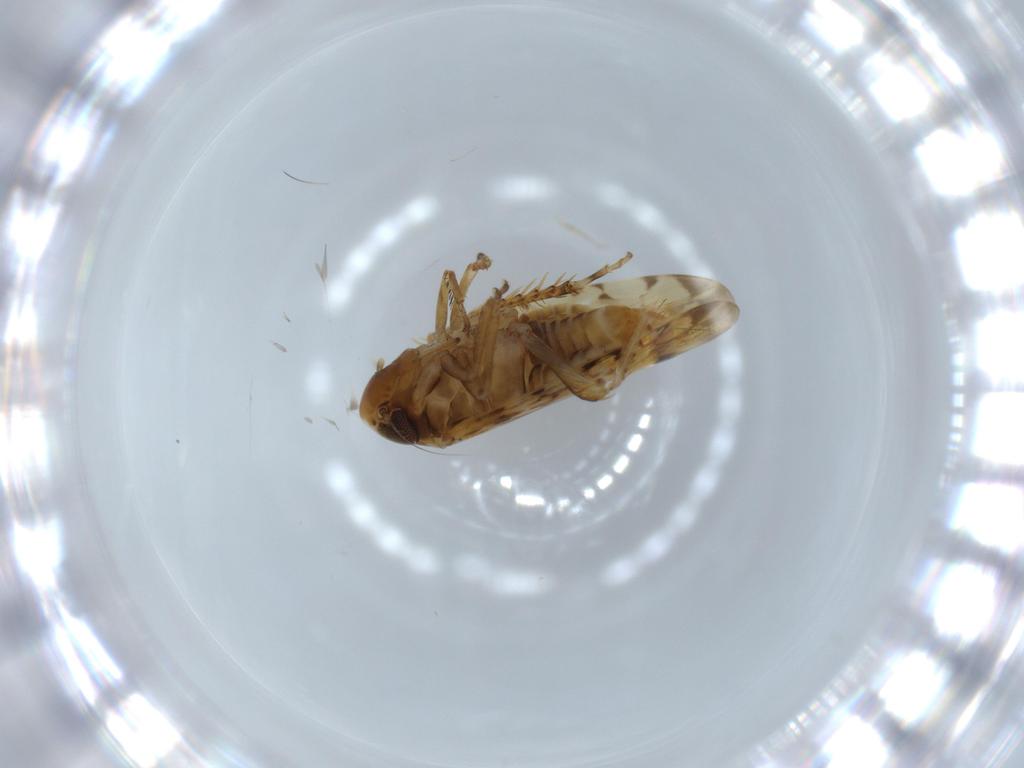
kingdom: Animalia
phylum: Arthropoda
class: Insecta
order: Hemiptera
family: Cicadellidae
